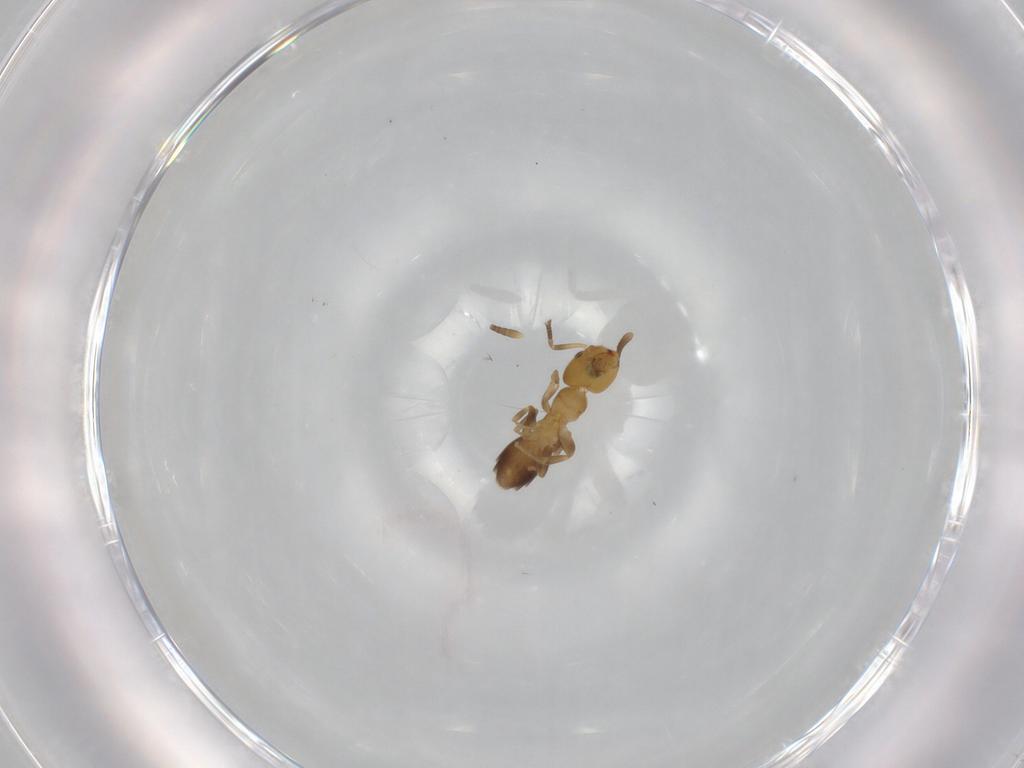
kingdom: Animalia
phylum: Arthropoda
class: Insecta
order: Hymenoptera
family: Formicidae
